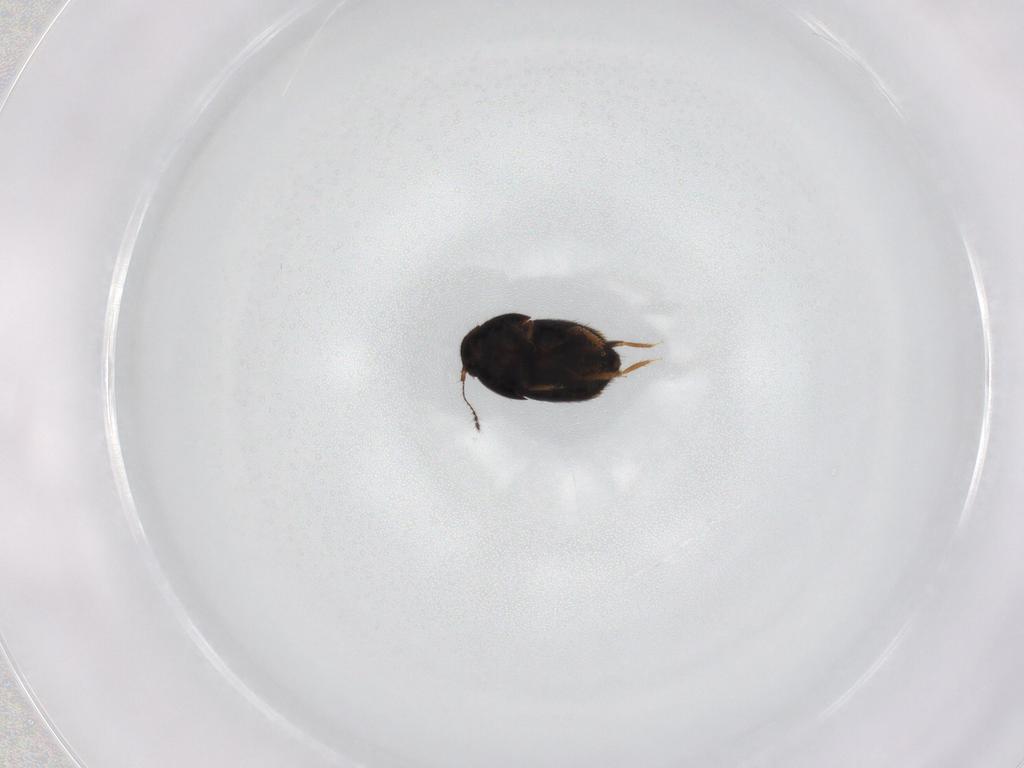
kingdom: Animalia
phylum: Arthropoda
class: Insecta
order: Coleoptera
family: Ptiliidae
